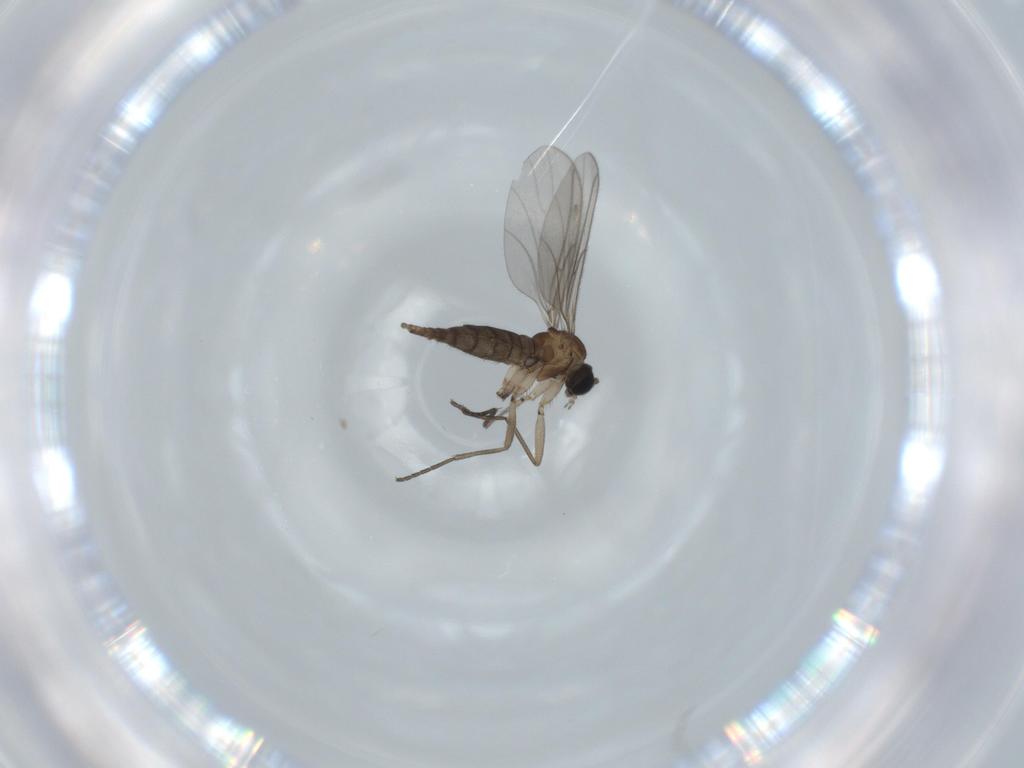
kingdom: Animalia
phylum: Arthropoda
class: Insecta
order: Diptera
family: Sciaridae
